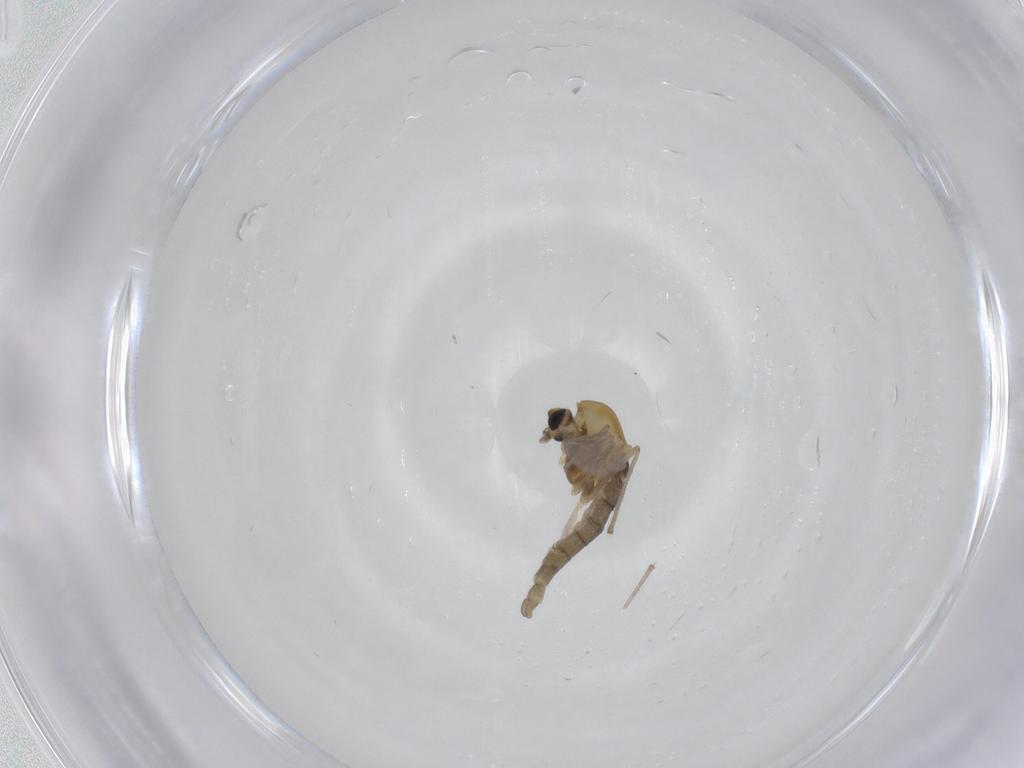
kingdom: Animalia
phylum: Arthropoda
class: Insecta
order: Diptera
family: Chironomidae
